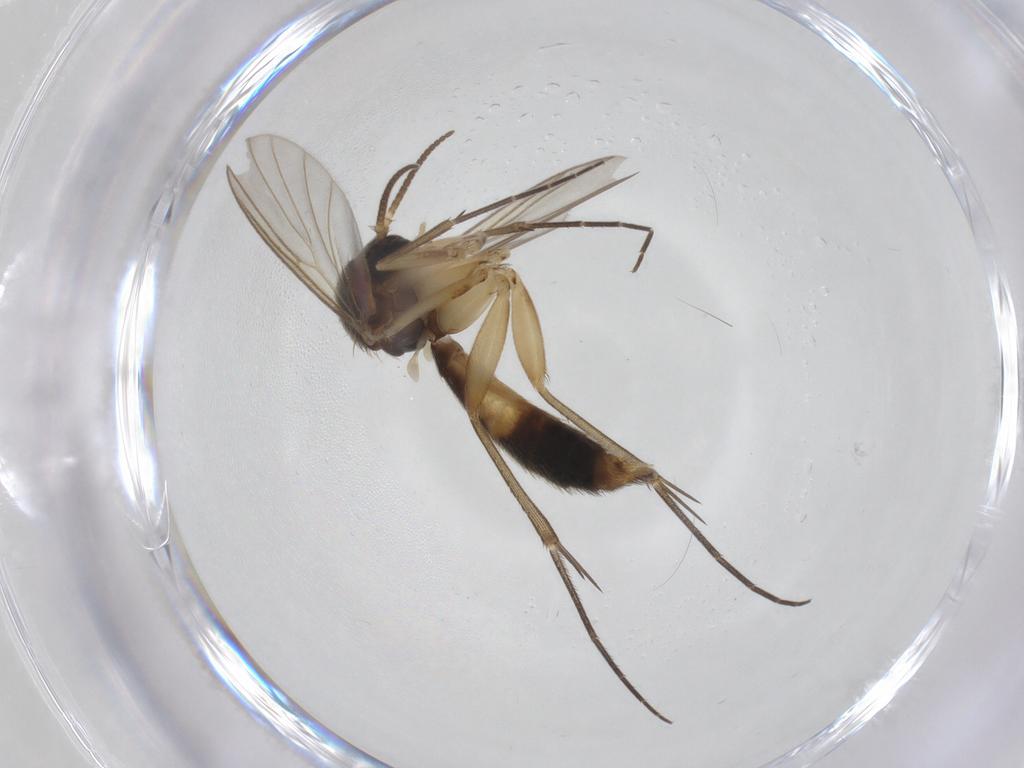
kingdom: Animalia
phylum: Arthropoda
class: Insecta
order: Diptera
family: Mycetophilidae
